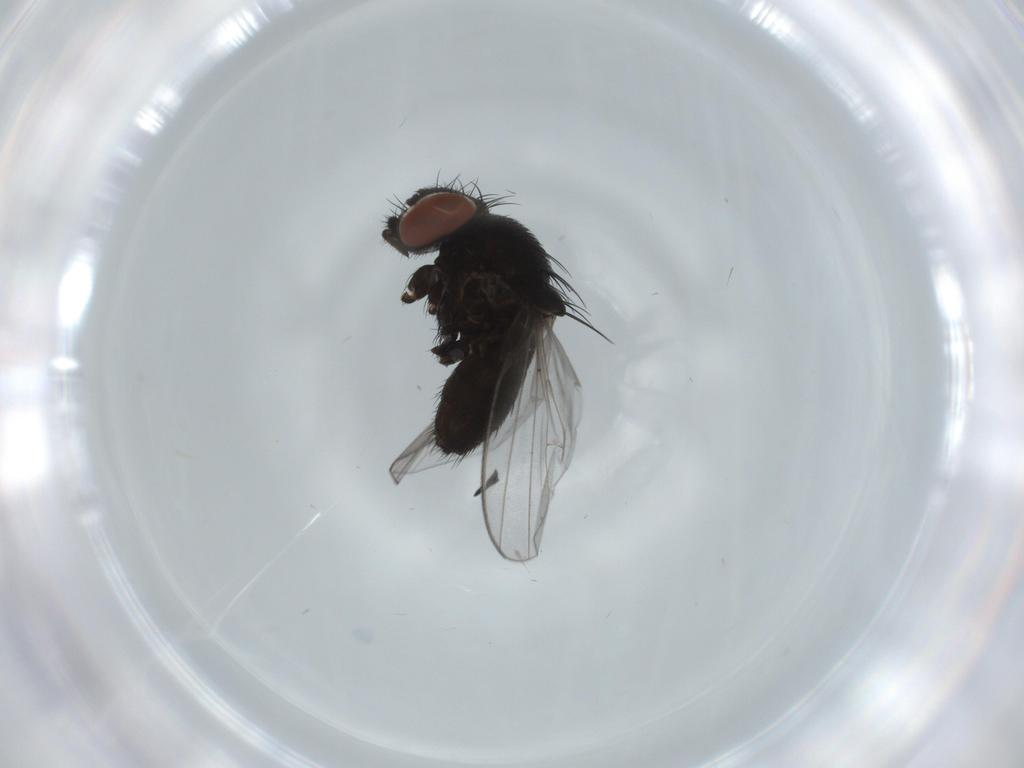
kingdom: Animalia
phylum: Arthropoda
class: Insecta
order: Diptera
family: Milichiidae
